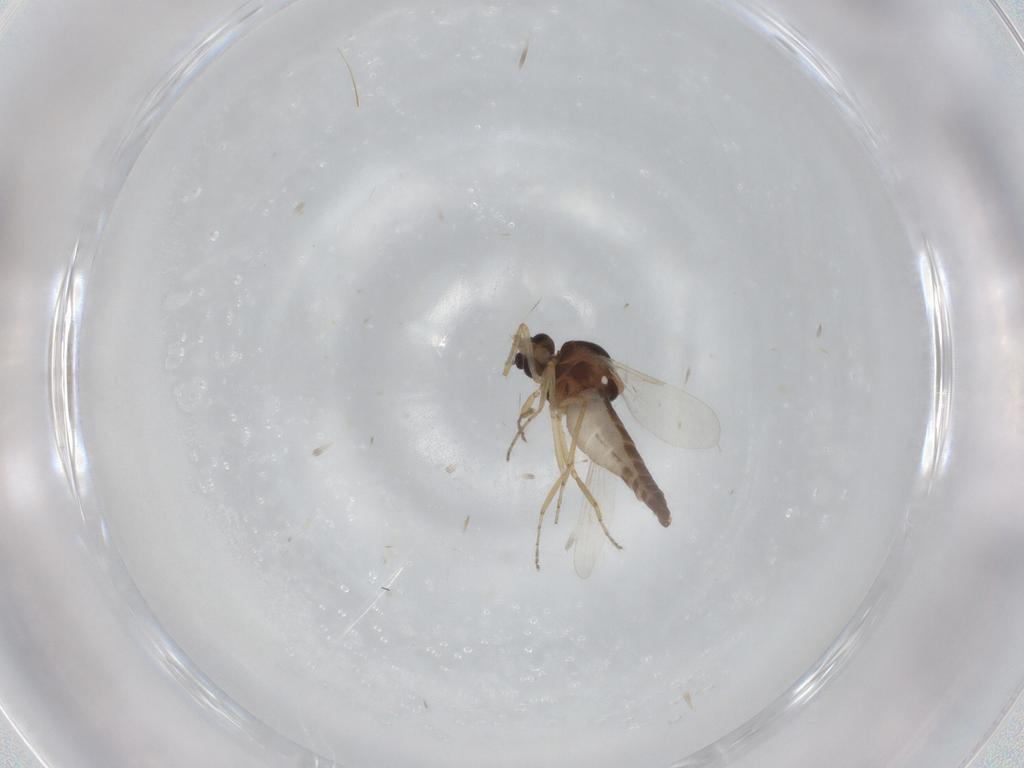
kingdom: Animalia
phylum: Arthropoda
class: Insecta
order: Diptera
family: Ceratopogonidae
